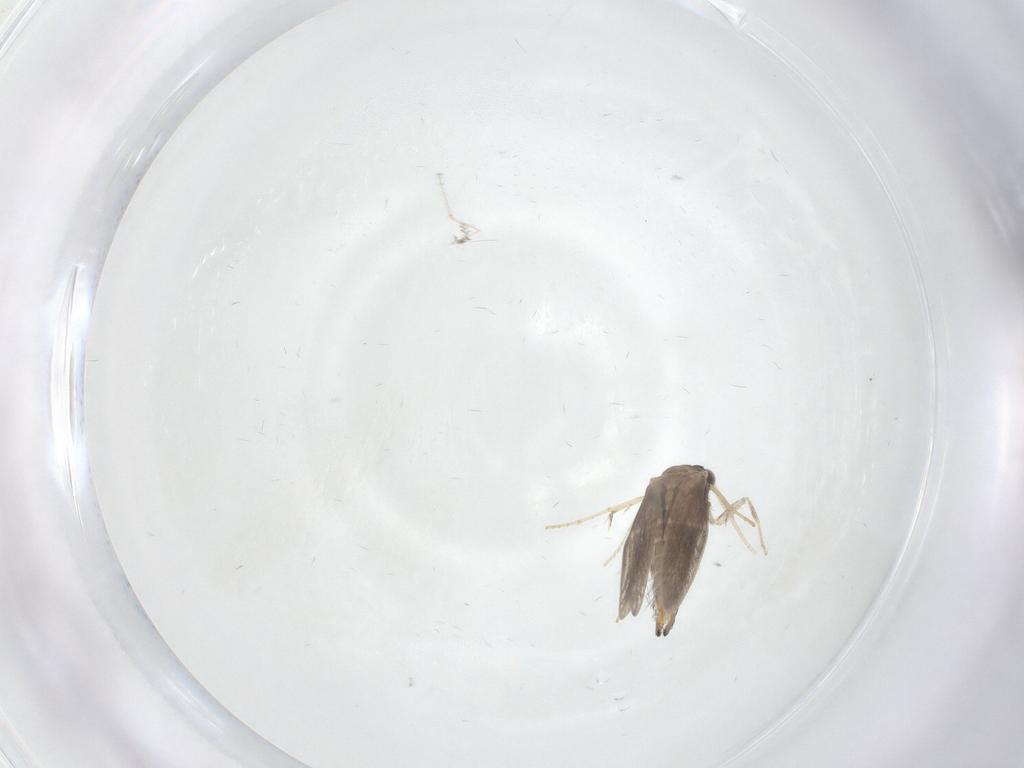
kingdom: Animalia
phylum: Arthropoda
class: Insecta
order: Trichoptera
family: Hydroptilidae
